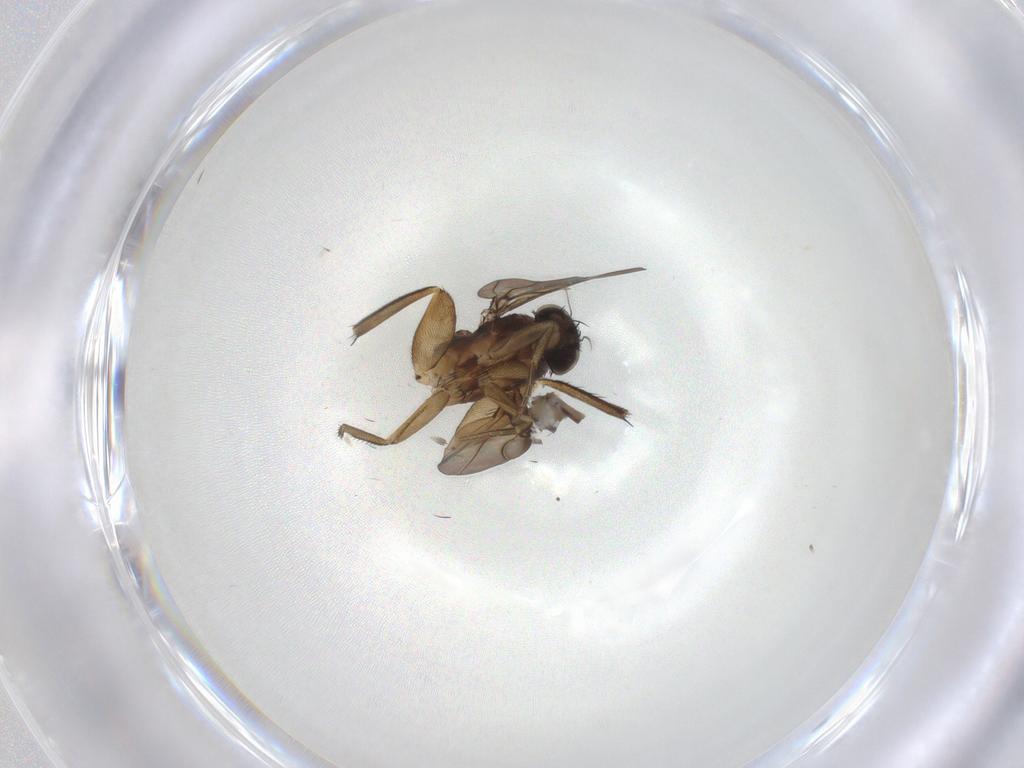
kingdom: Animalia
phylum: Arthropoda
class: Insecta
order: Diptera
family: Phoridae
